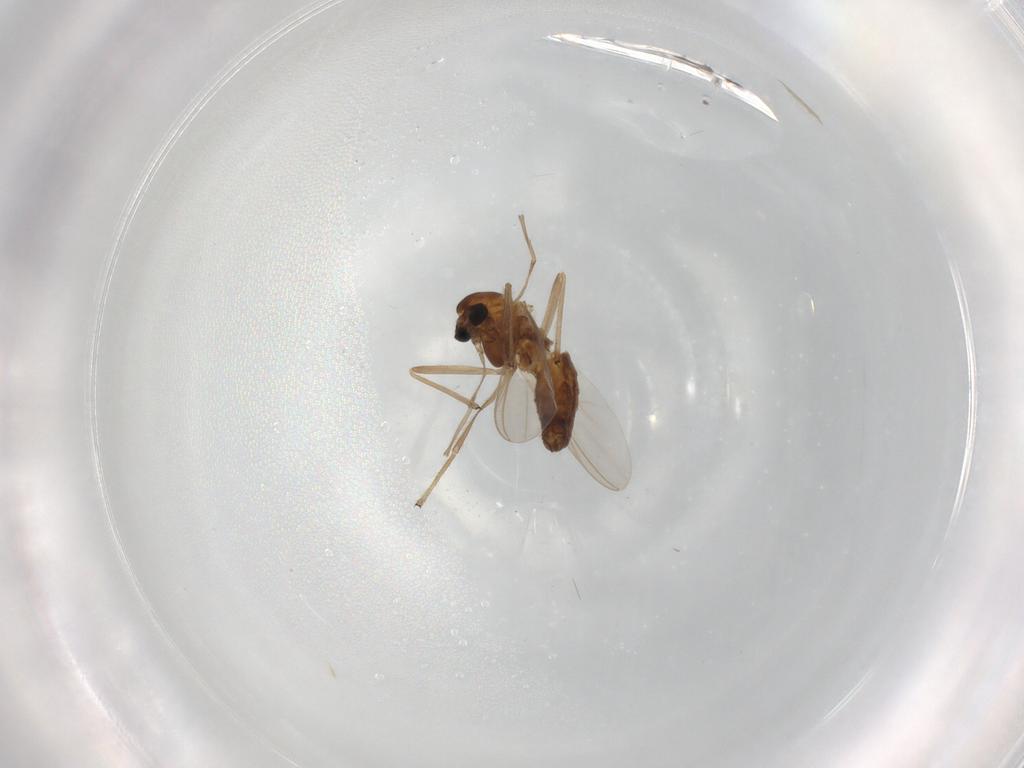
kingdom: Animalia
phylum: Arthropoda
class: Insecta
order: Diptera
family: Chironomidae
